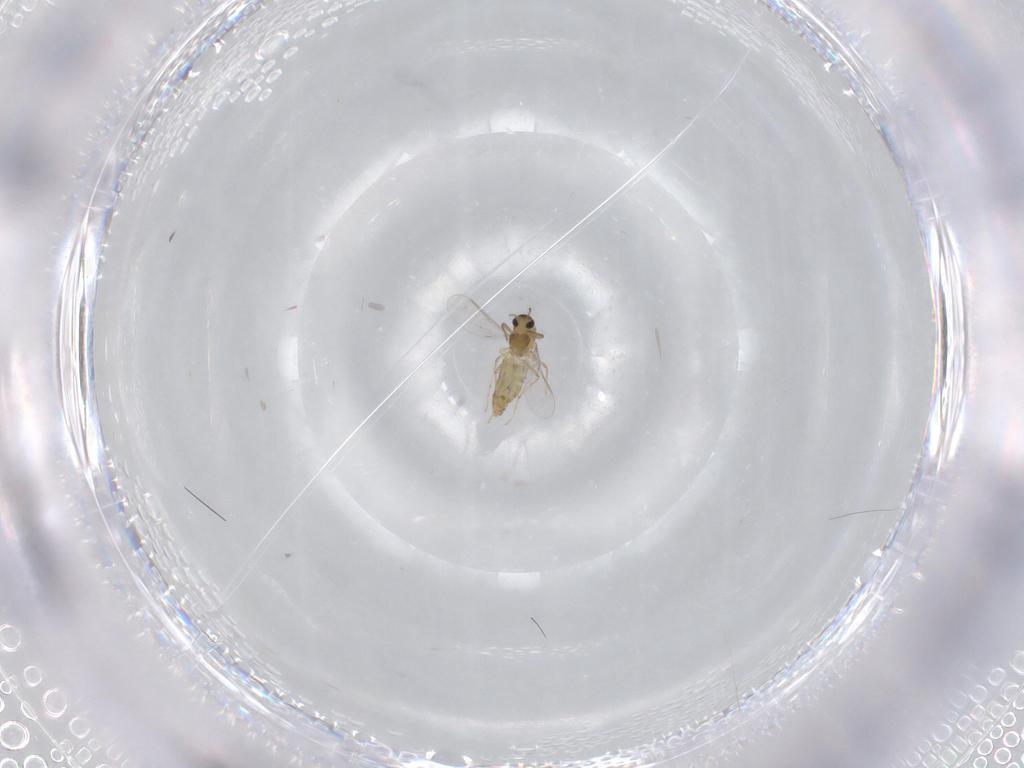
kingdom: Animalia
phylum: Arthropoda
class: Insecta
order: Diptera
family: Chironomidae
